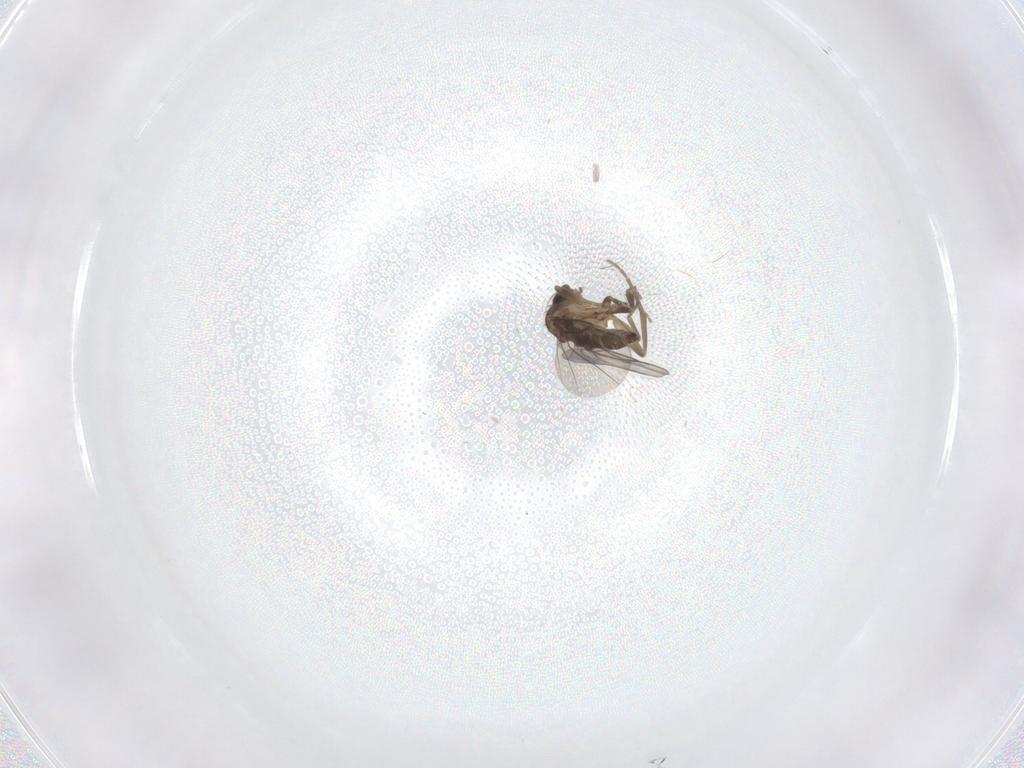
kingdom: Animalia
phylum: Arthropoda
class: Insecta
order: Diptera
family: Phoridae
